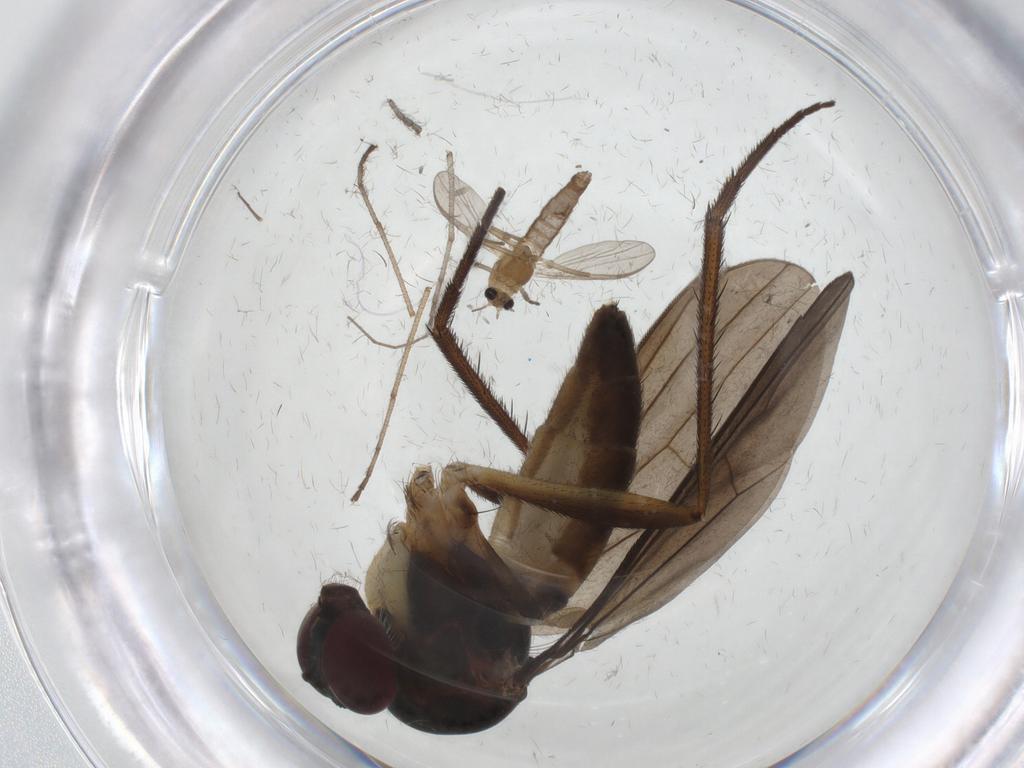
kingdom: Animalia
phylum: Arthropoda
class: Insecta
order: Diptera
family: Dolichopodidae
